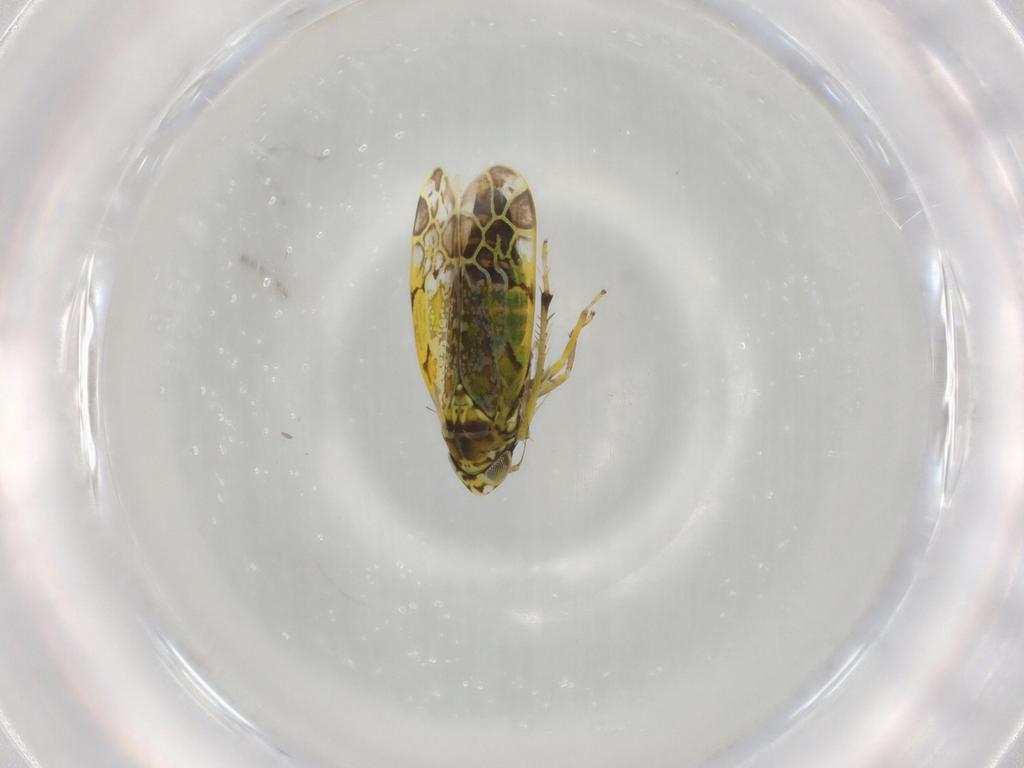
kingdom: Animalia
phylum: Arthropoda
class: Insecta
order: Hemiptera
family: Cicadellidae
